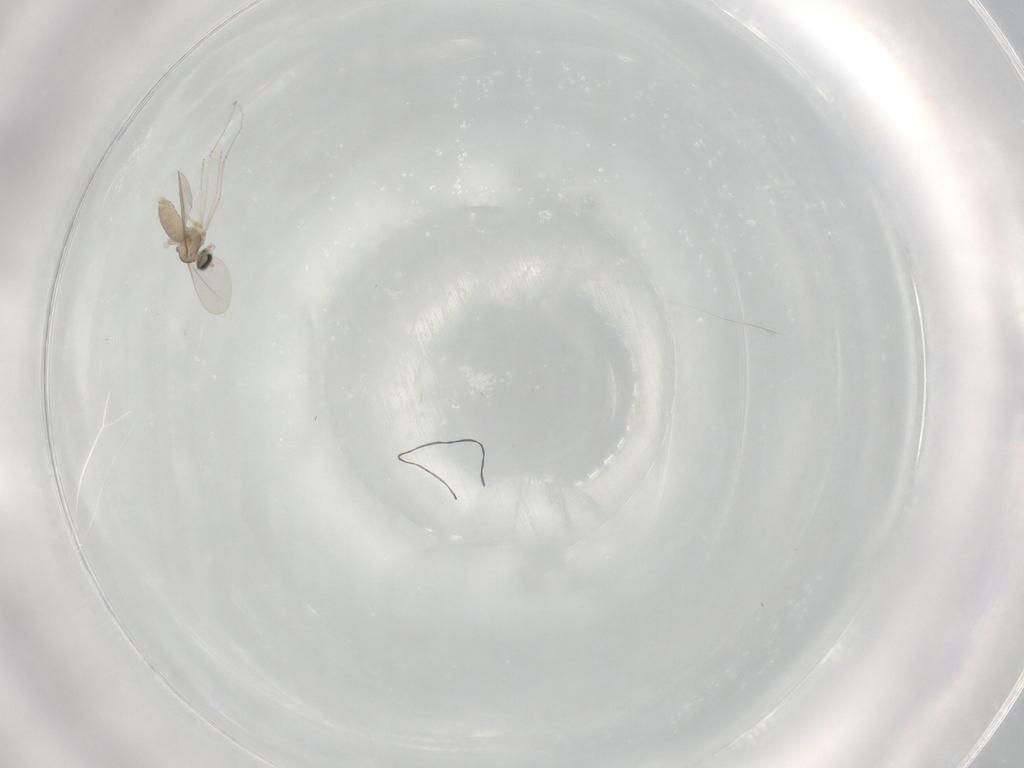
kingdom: Animalia
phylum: Arthropoda
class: Insecta
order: Diptera
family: Cecidomyiidae
